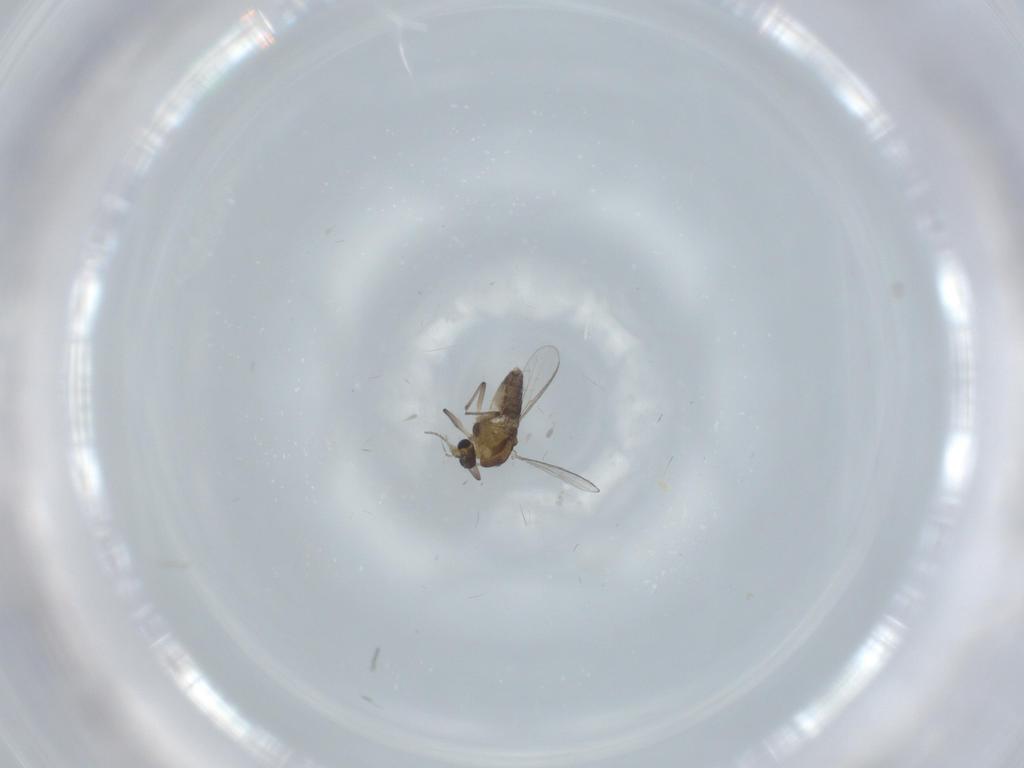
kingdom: Animalia
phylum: Arthropoda
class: Insecta
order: Diptera
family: Chironomidae
